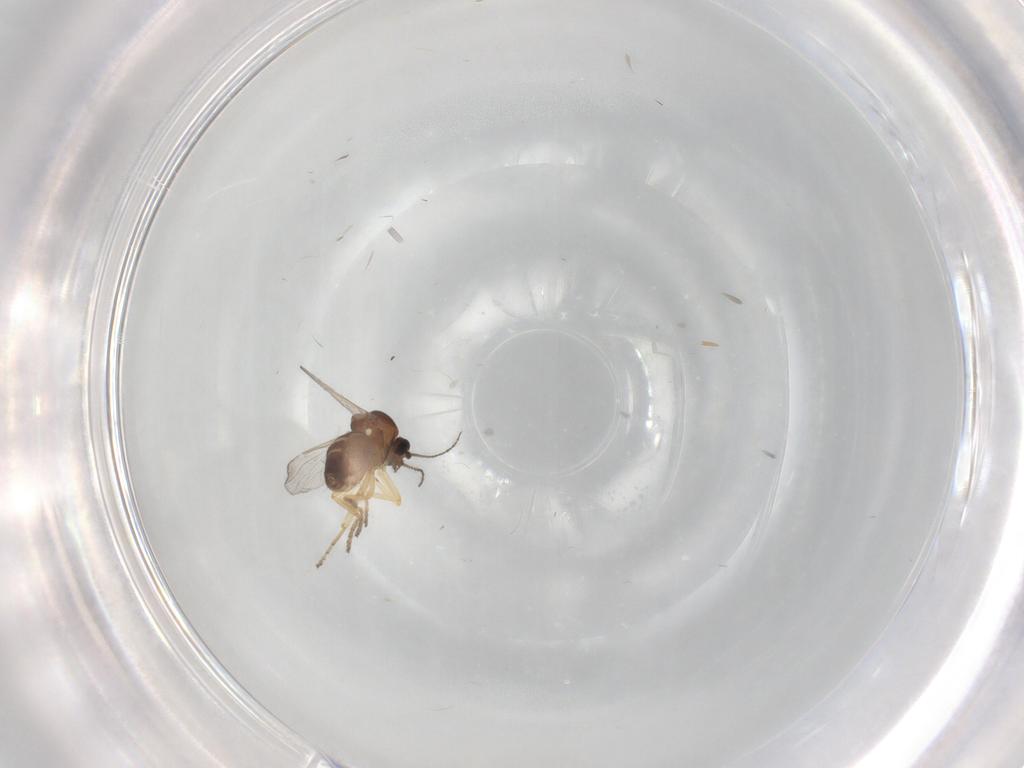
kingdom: Animalia
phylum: Arthropoda
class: Insecta
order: Diptera
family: Ceratopogonidae
